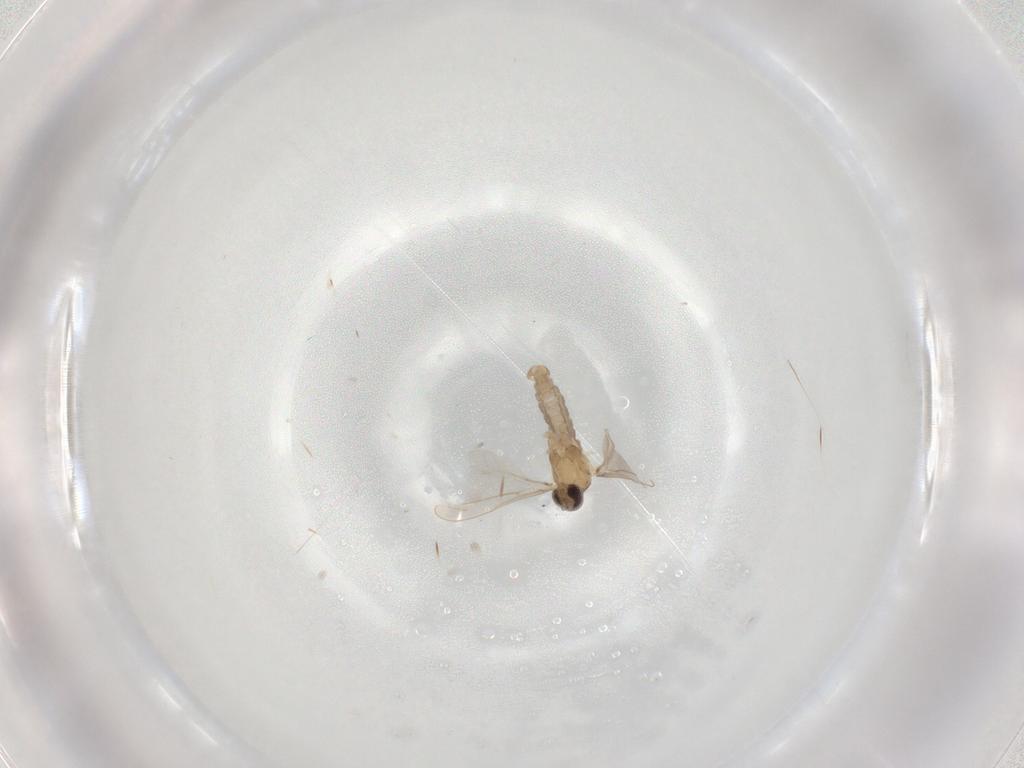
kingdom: Animalia
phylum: Arthropoda
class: Insecta
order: Diptera
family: Cecidomyiidae
